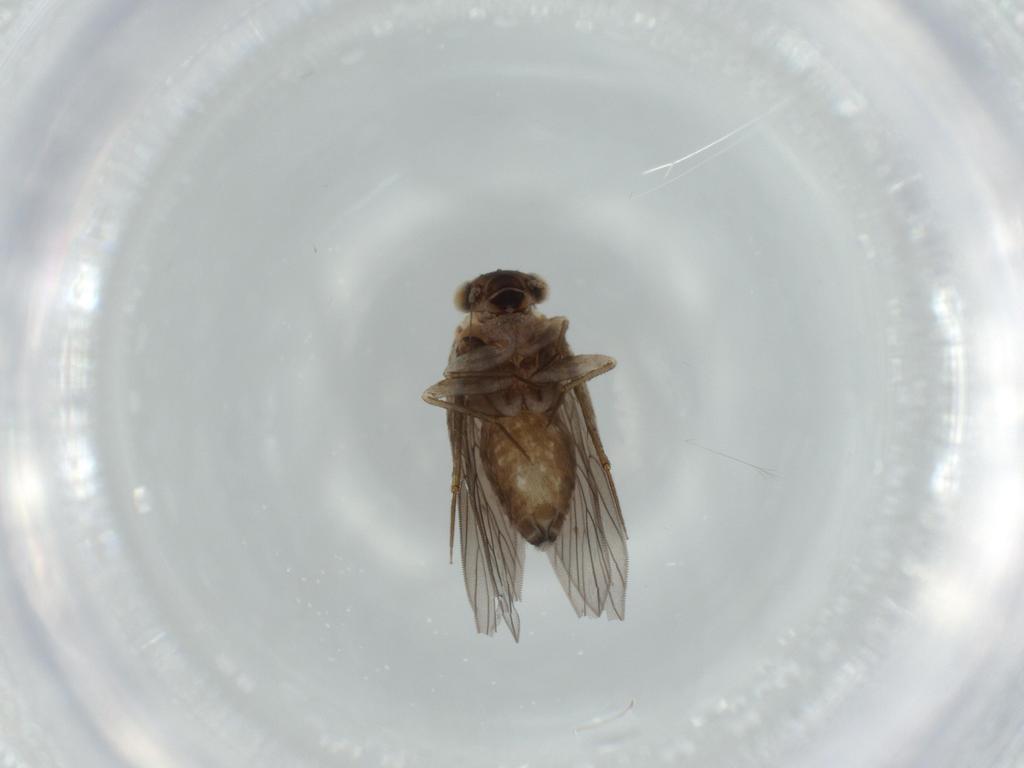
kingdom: Animalia
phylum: Arthropoda
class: Insecta
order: Psocodea
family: Lepidopsocidae
